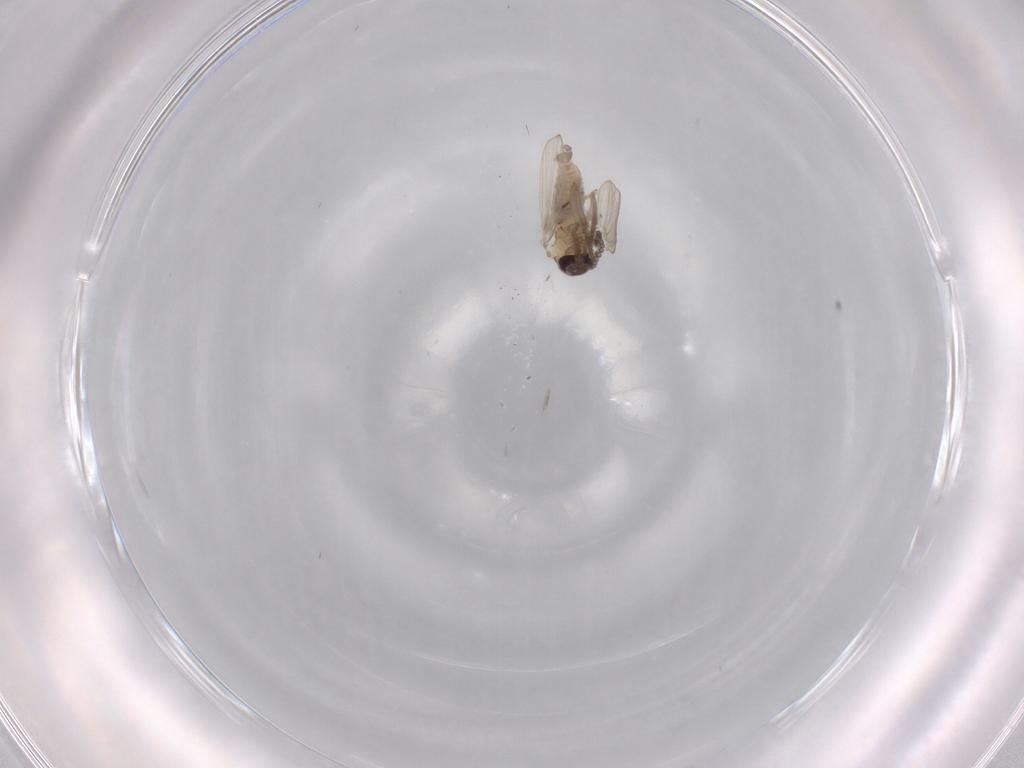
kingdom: Animalia
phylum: Arthropoda
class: Insecta
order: Diptera
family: Psychodidae
